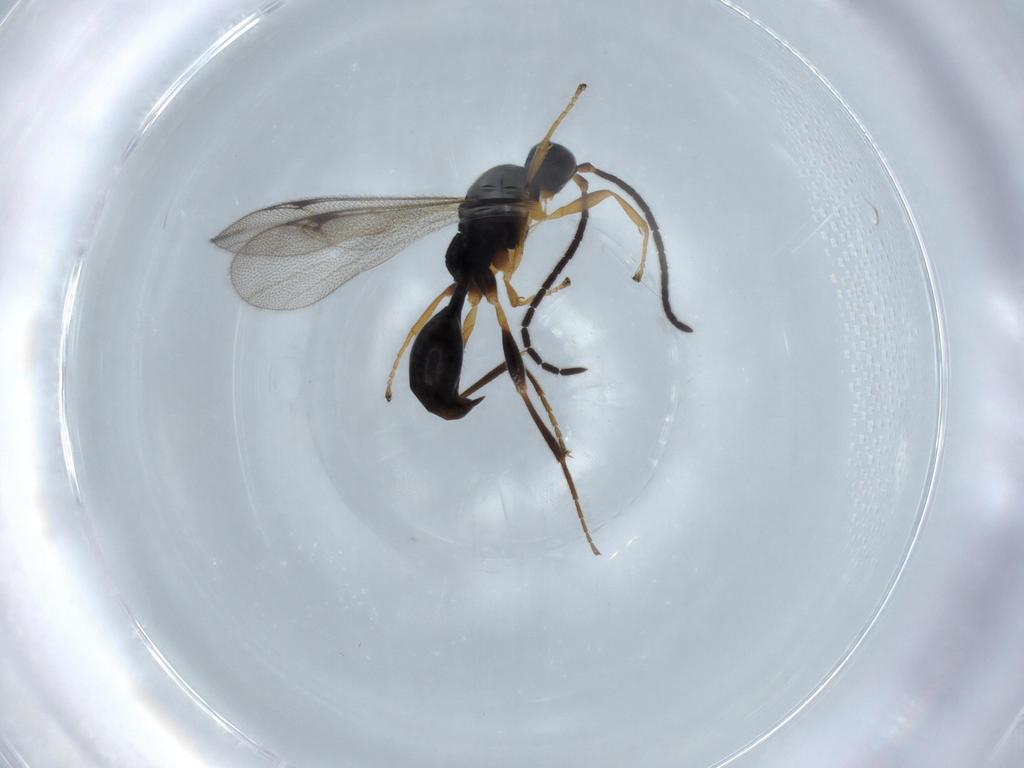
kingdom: Animalia
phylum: Arthropoda
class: Insecta
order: Hymenoptera
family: Proctotrupidae
